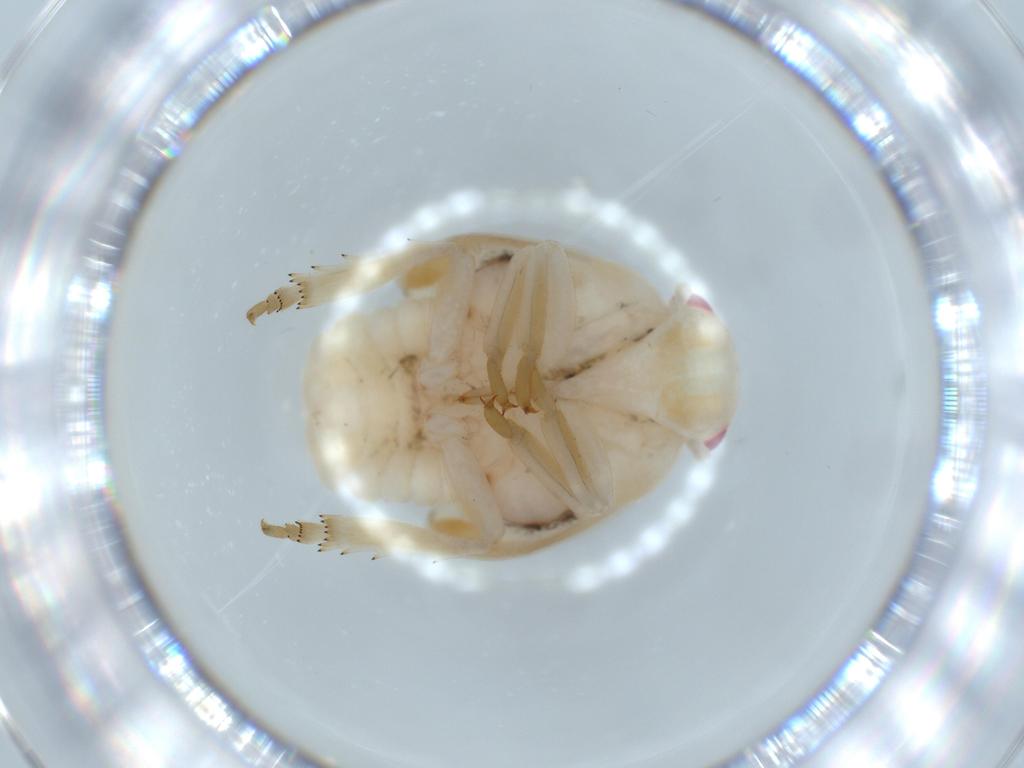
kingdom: Animalia
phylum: Arthropoda
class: Insecta
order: Hemiptera
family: Flatidae
